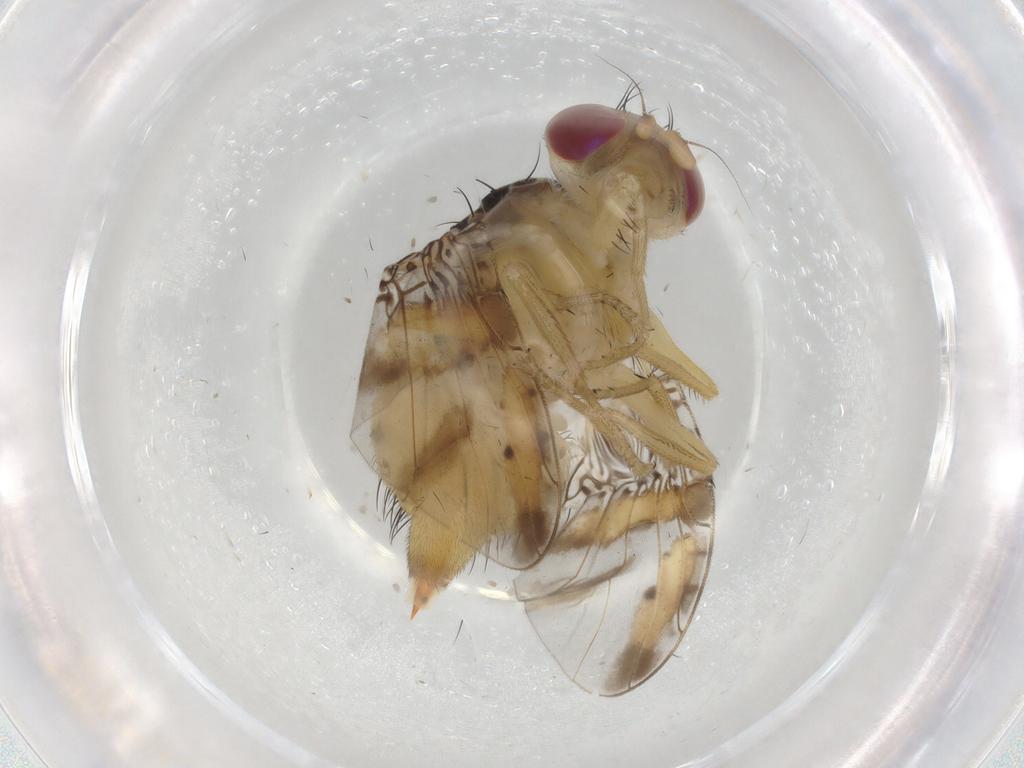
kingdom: Animalia
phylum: Arthropoda
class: Insecta
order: Diptera
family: Tephritidae
